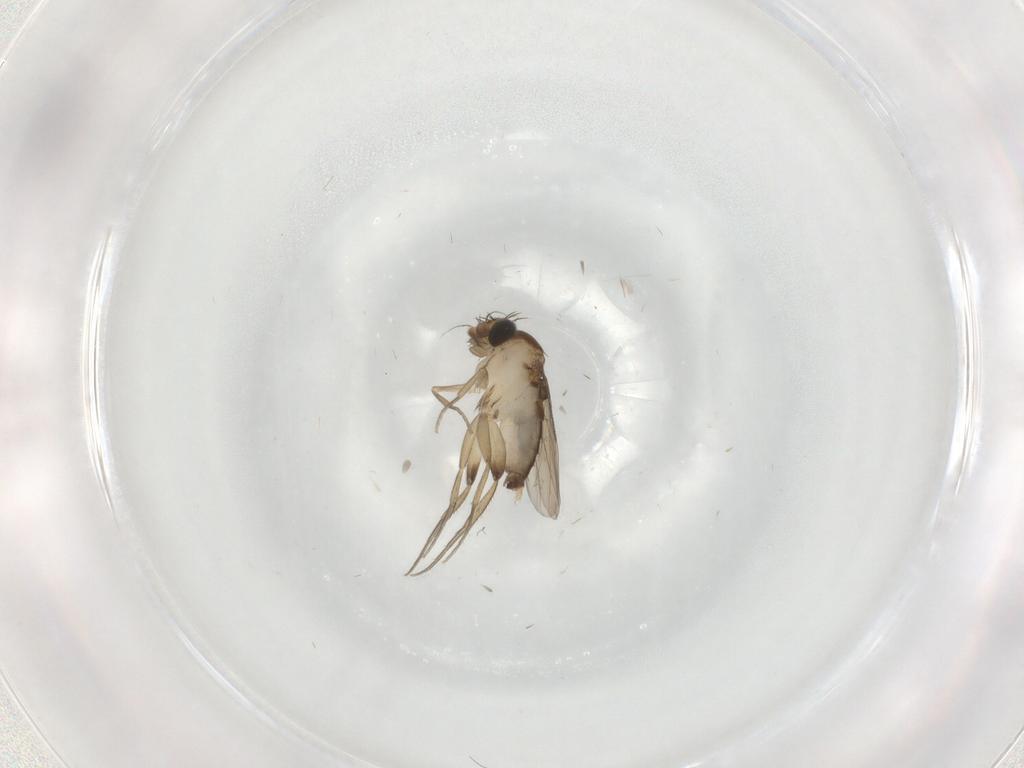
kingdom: Animalia
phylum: Arthropoda
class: Insecta
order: Diptera
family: Phoridae
